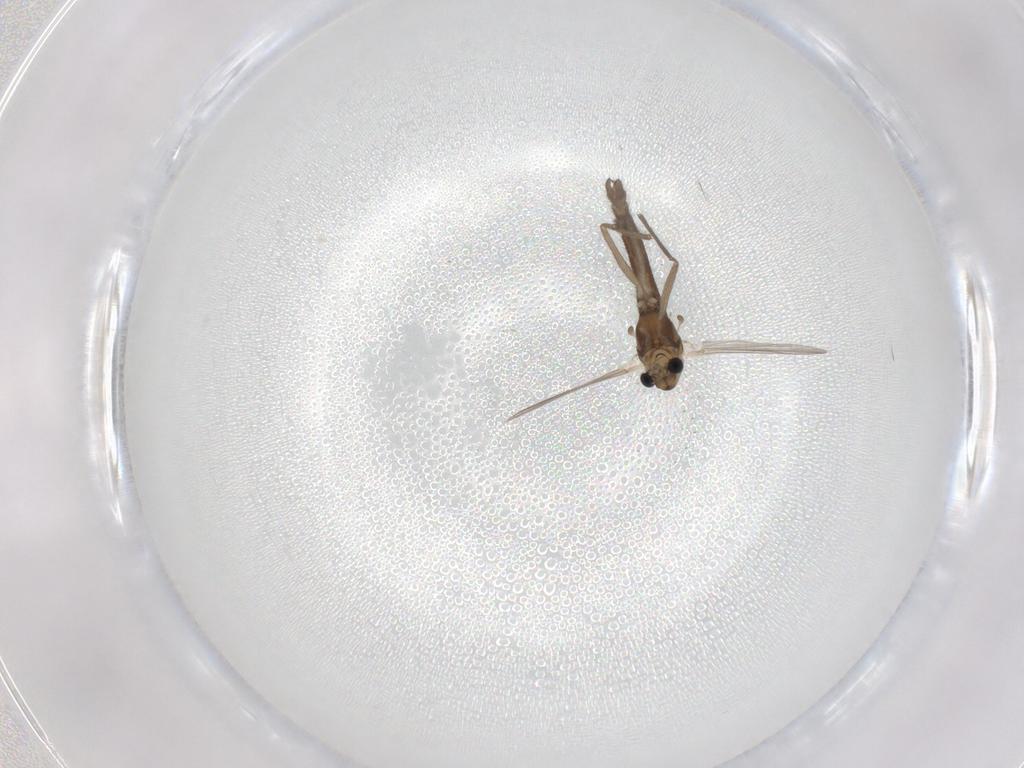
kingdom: Animalia
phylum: Arthropoda
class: Insecta
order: Diptera
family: Chironomidae
